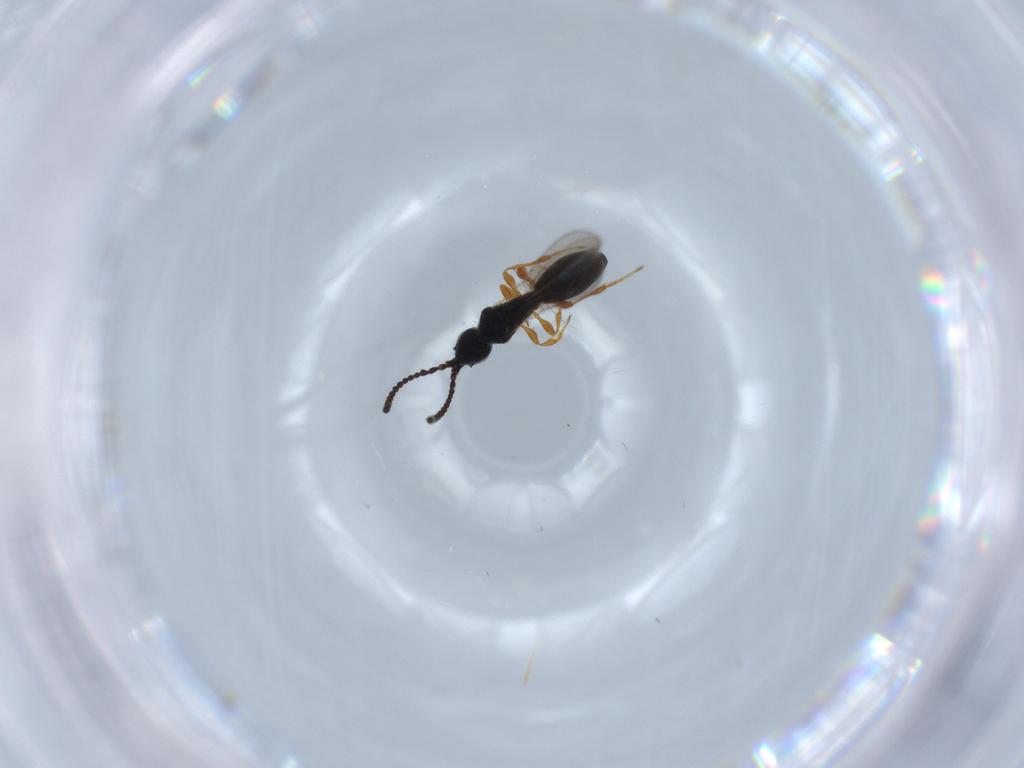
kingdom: Animalia
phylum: Arthropoda
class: Insecta
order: Hymenoptera
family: Diapriidae
